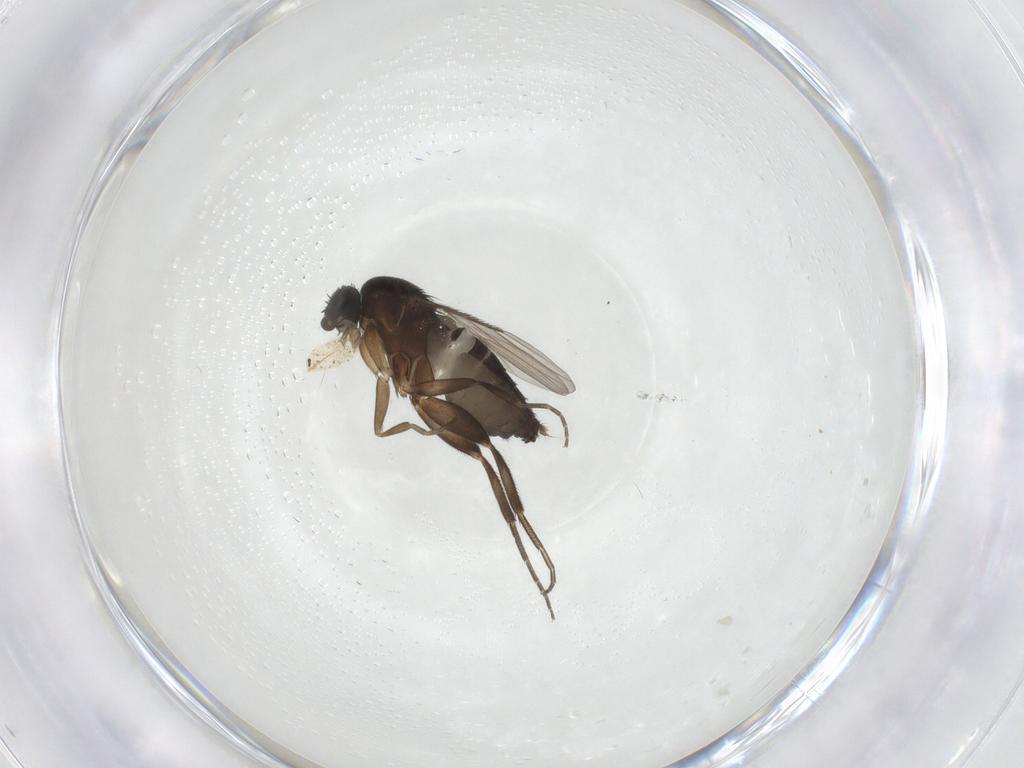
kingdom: Animalia
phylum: Arthropoda
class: Insecta
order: Diptera
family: Phoridae
